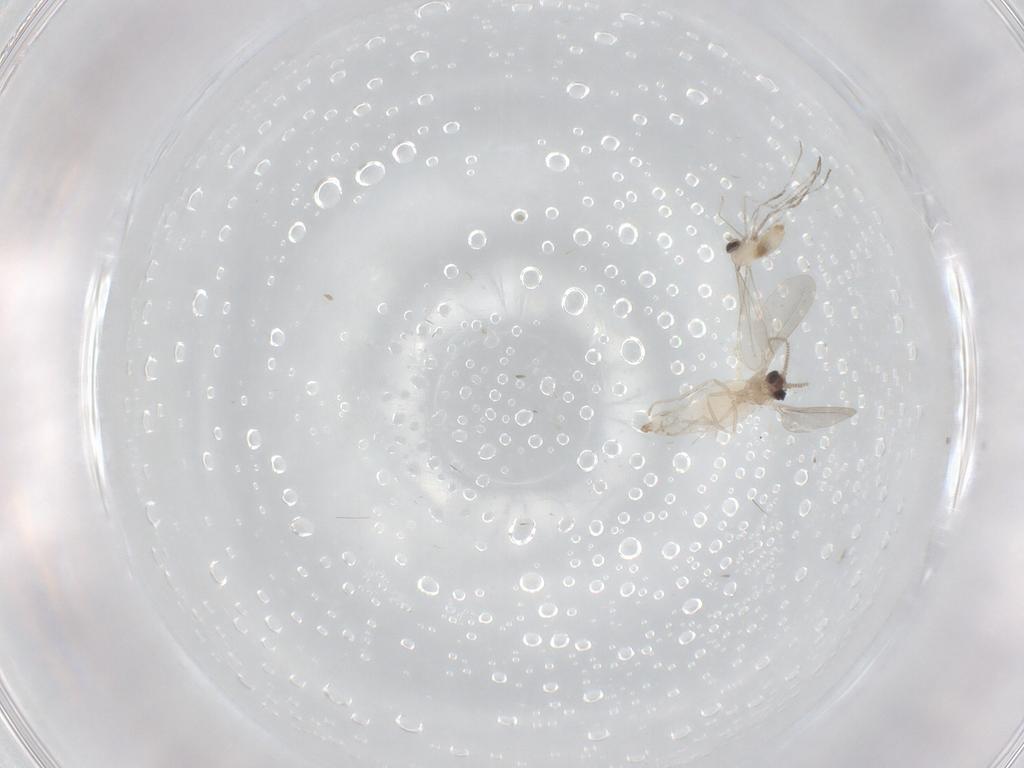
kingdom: Animalia
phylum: Arthropoda
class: Insecta
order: Diptera
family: Cecidomyiidae
